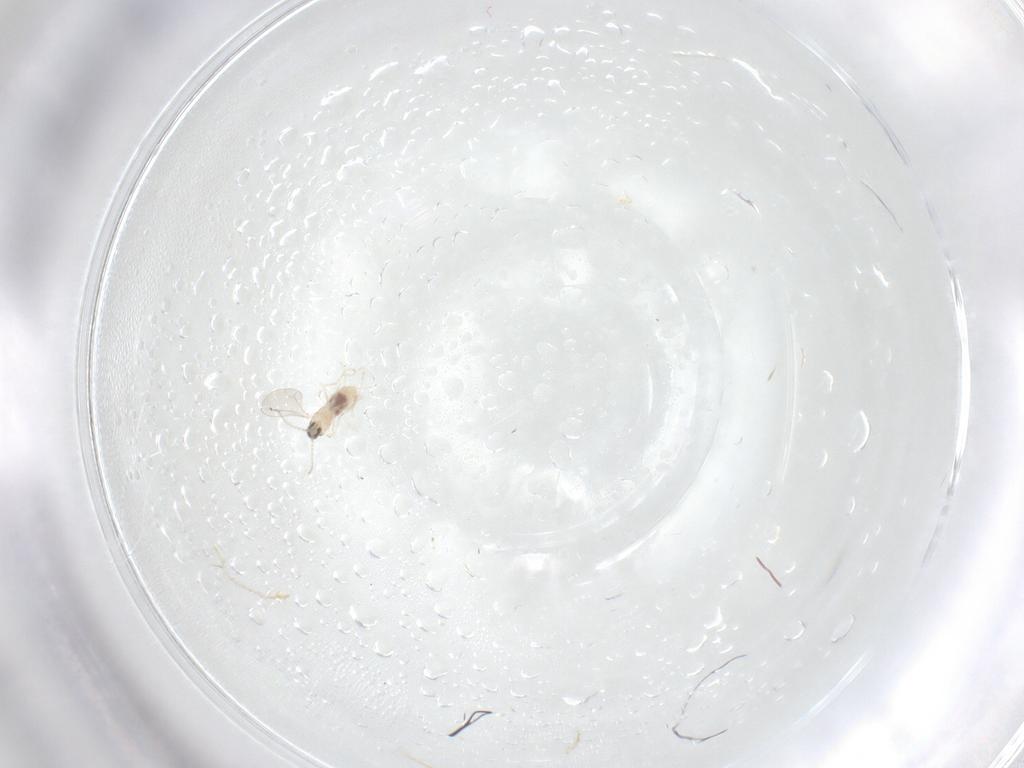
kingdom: Animalia
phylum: Arthropoda
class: Insecta
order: Diptera
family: Cecidomyiidae
